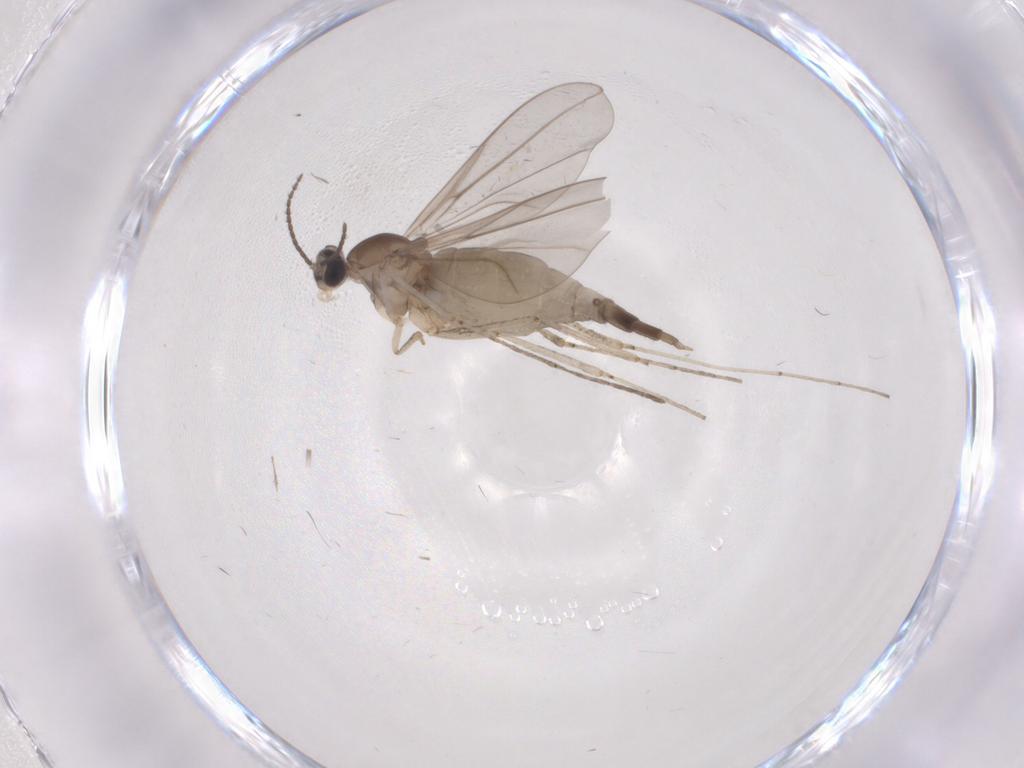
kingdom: Animalia
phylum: Arthropoda
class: Insecta
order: Diptera
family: Cecidomyiidae
